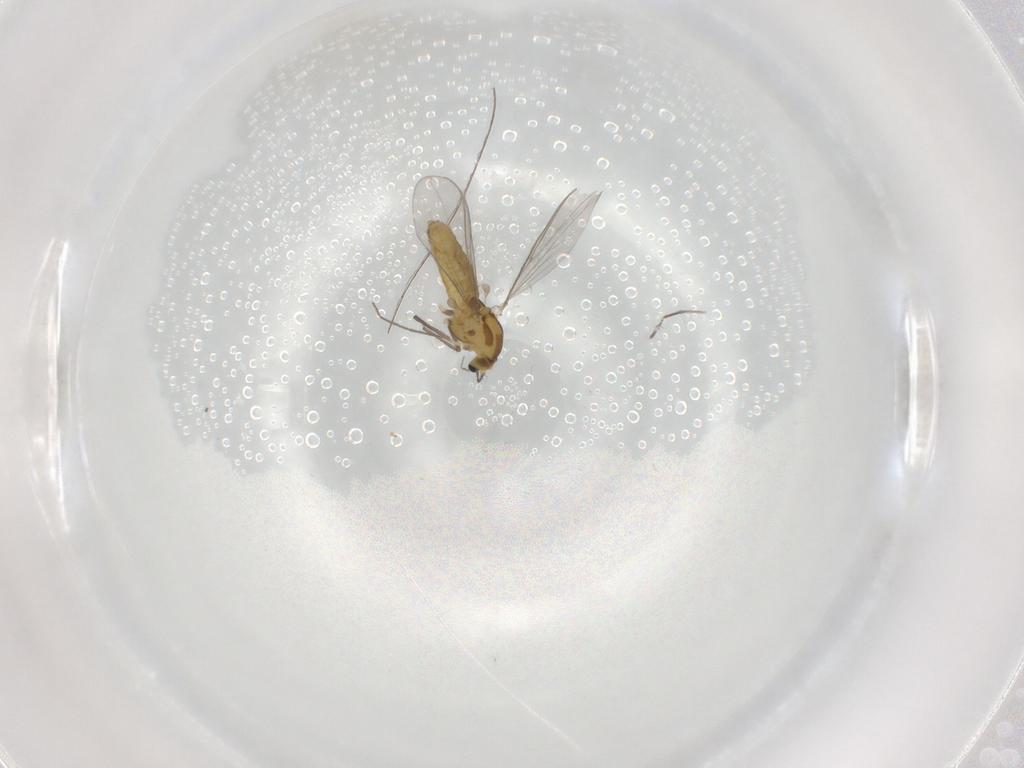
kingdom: Animalia
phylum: Arthropoda
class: Insecta
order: Diptera
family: Chironomidae
